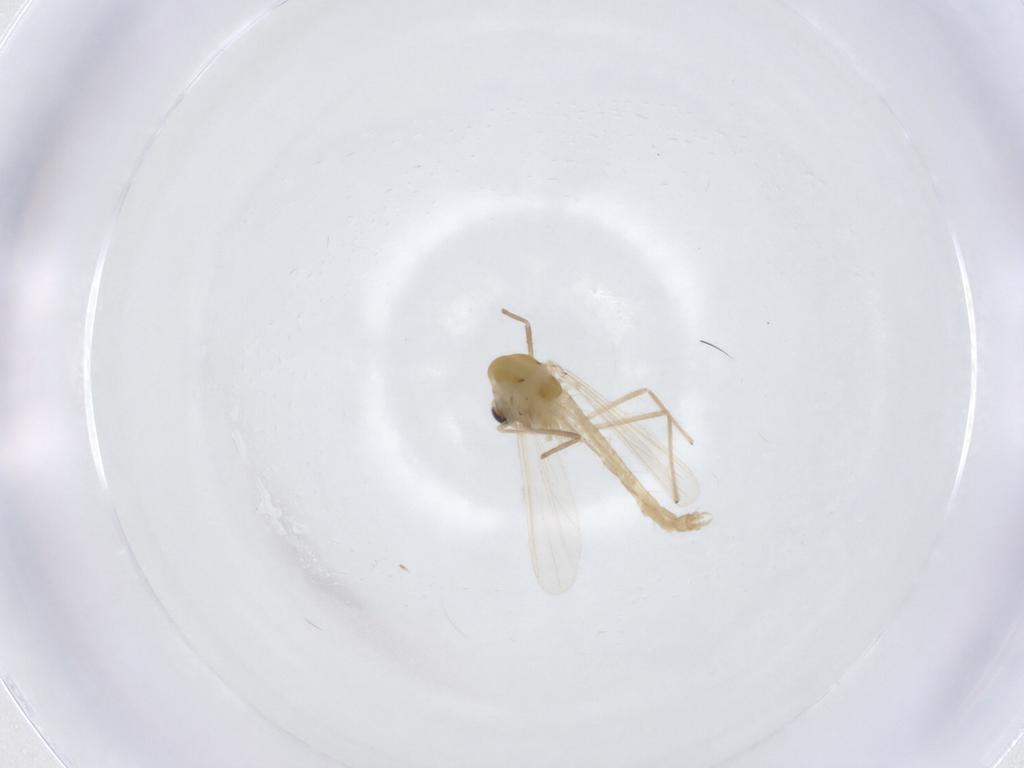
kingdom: Animalia
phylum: Arthropoda
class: Insecta
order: Diptera
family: Chironomidae
